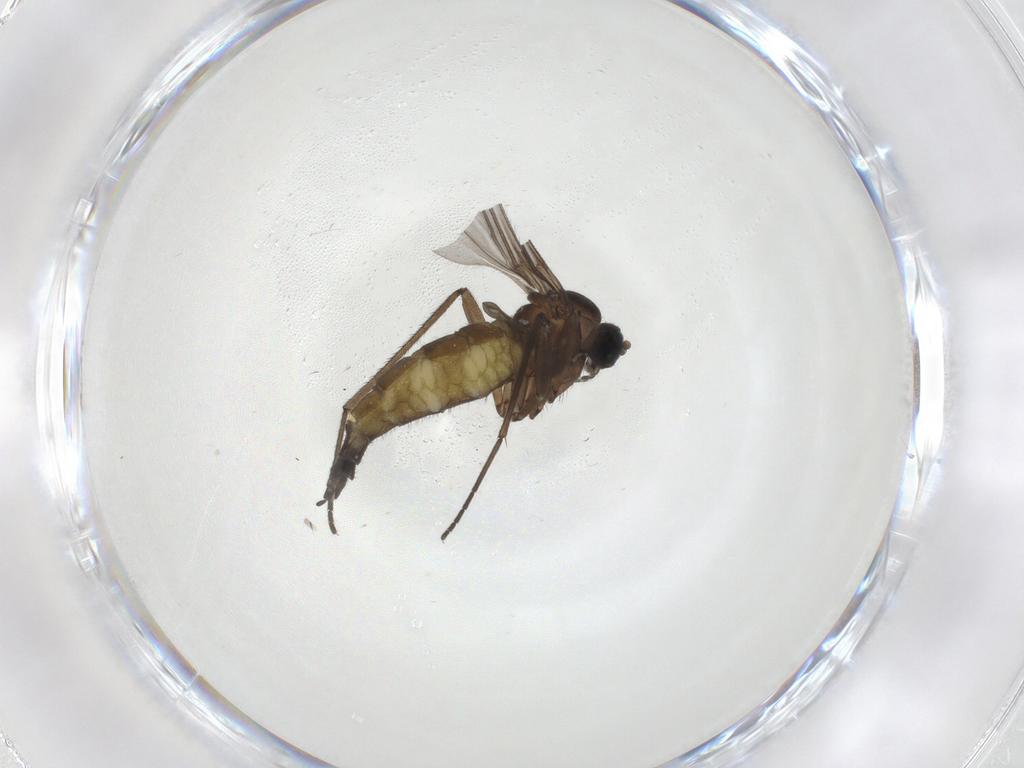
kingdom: Animalia
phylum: Arthropoda
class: Insecta
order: Diptera
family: Sciaridae
